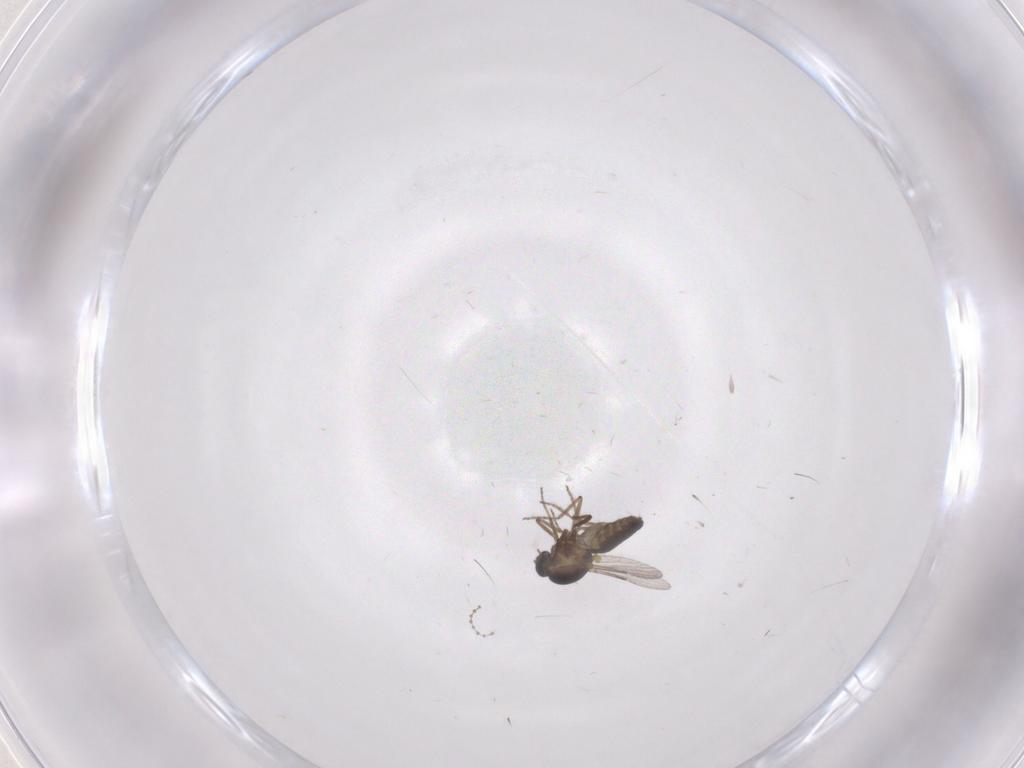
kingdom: Animalia
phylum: Arthropoda
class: Insecta
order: Diptera
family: Ceratopogonidae
